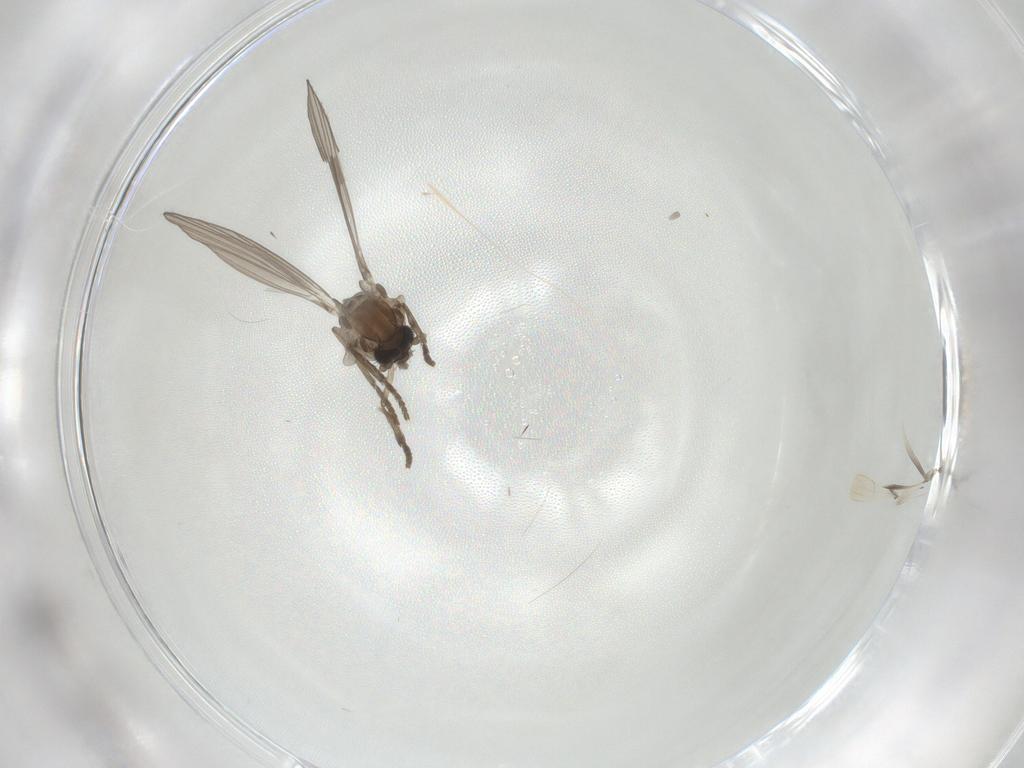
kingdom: Animalia
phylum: Arthropoda
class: Insecta
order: Diptera
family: Psychodidae
